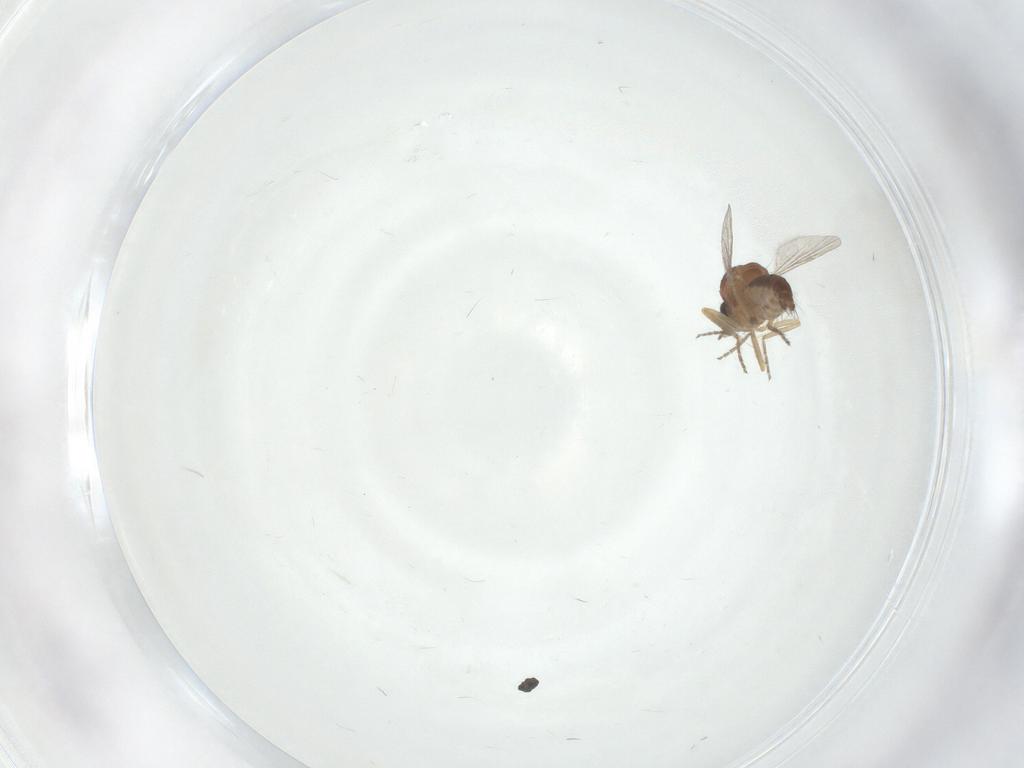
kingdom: Animalia
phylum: Arthropoda
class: Insecta
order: Diptera
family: Ceratopogonidae
